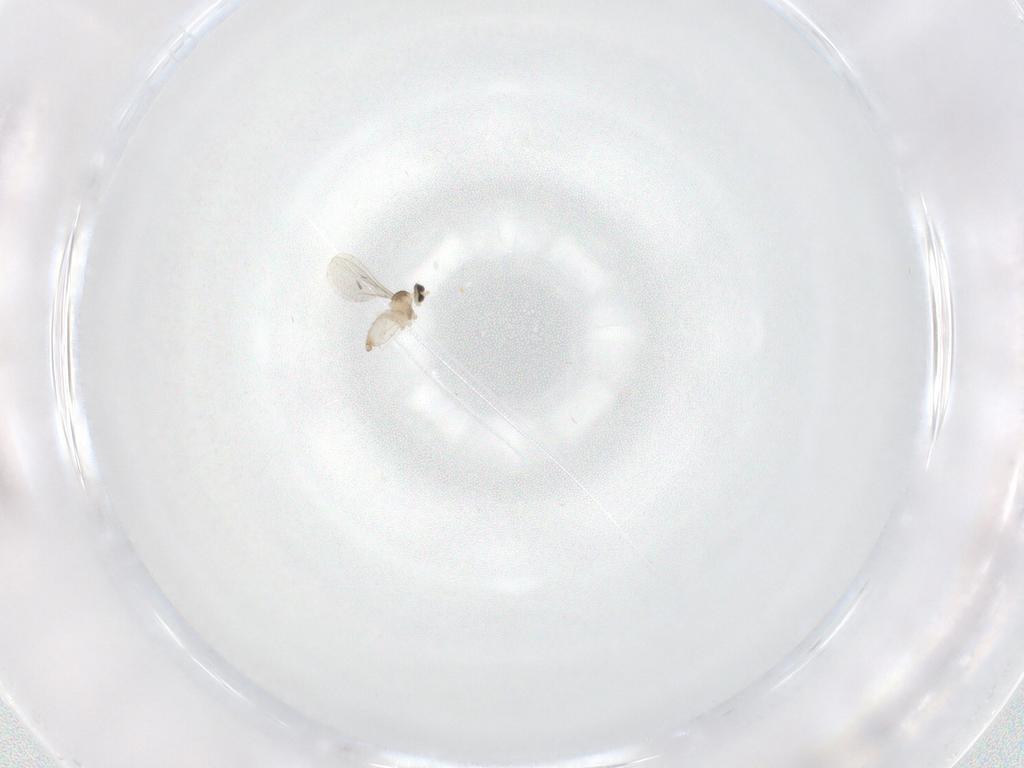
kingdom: Animalia
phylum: Arthropoda
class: Insecta
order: Diptera
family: Cecidomyiidae
